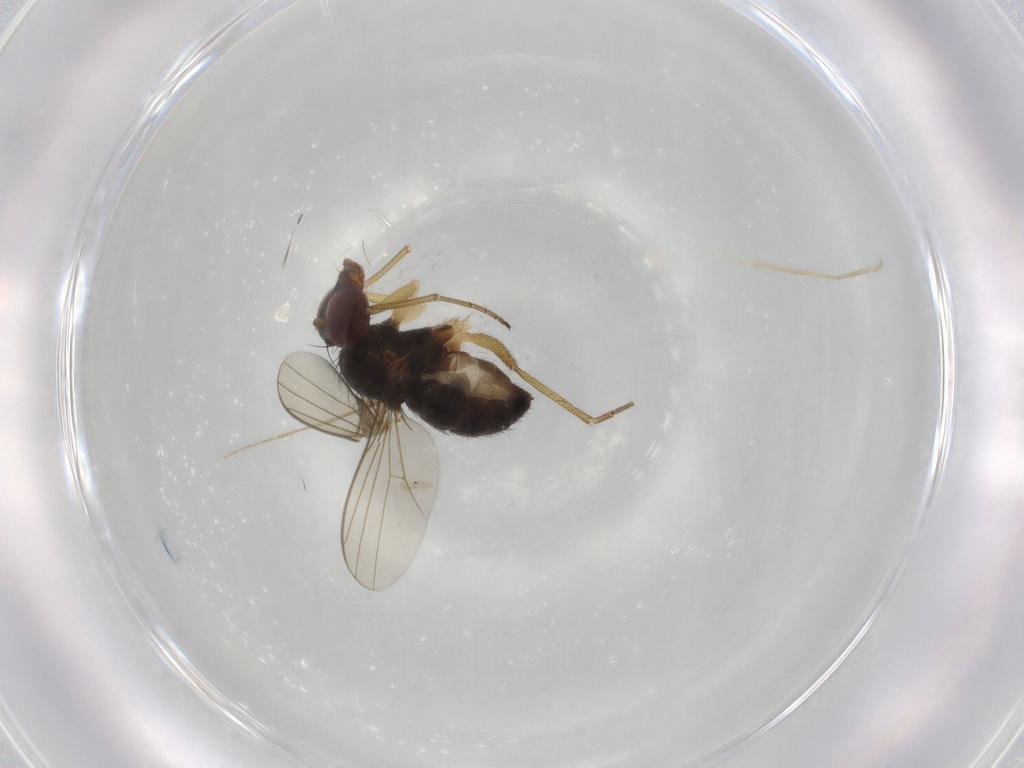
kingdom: Animalia
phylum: Arthropoda
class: Insecta
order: Diptera
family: Dolichopodidae
